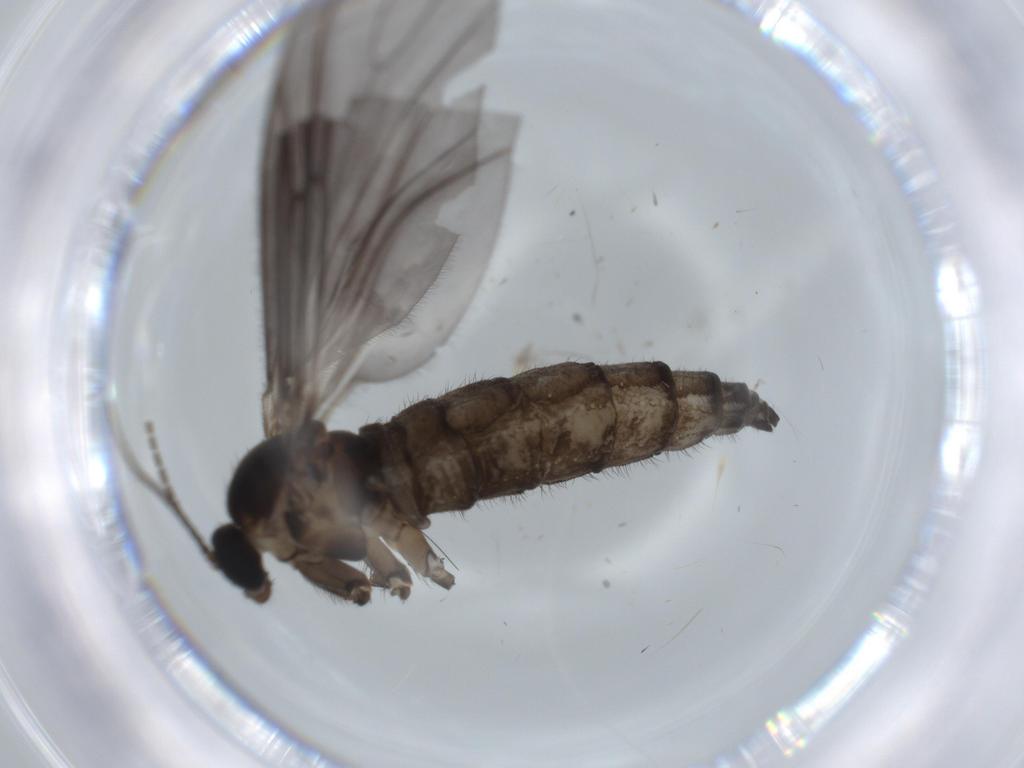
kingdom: Animalia
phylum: Arthropoda
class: Insecta
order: Diptera
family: Sciaridae
